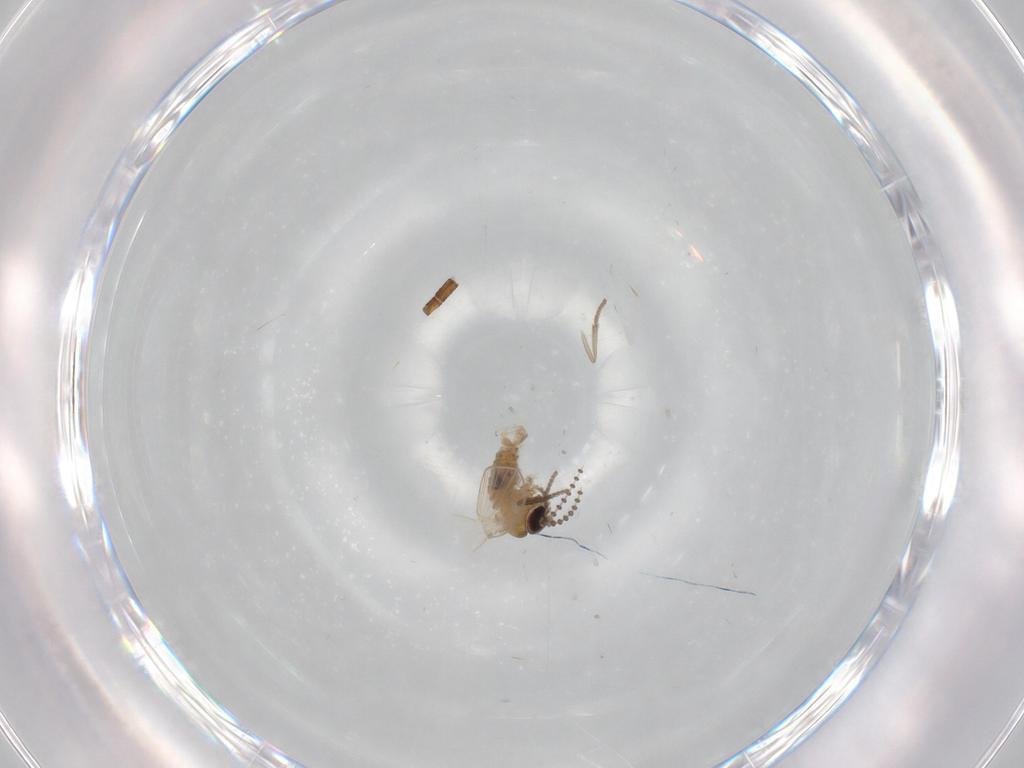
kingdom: Animalia
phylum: Arthropoda
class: Insecta
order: Diptera
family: Psychodidae
